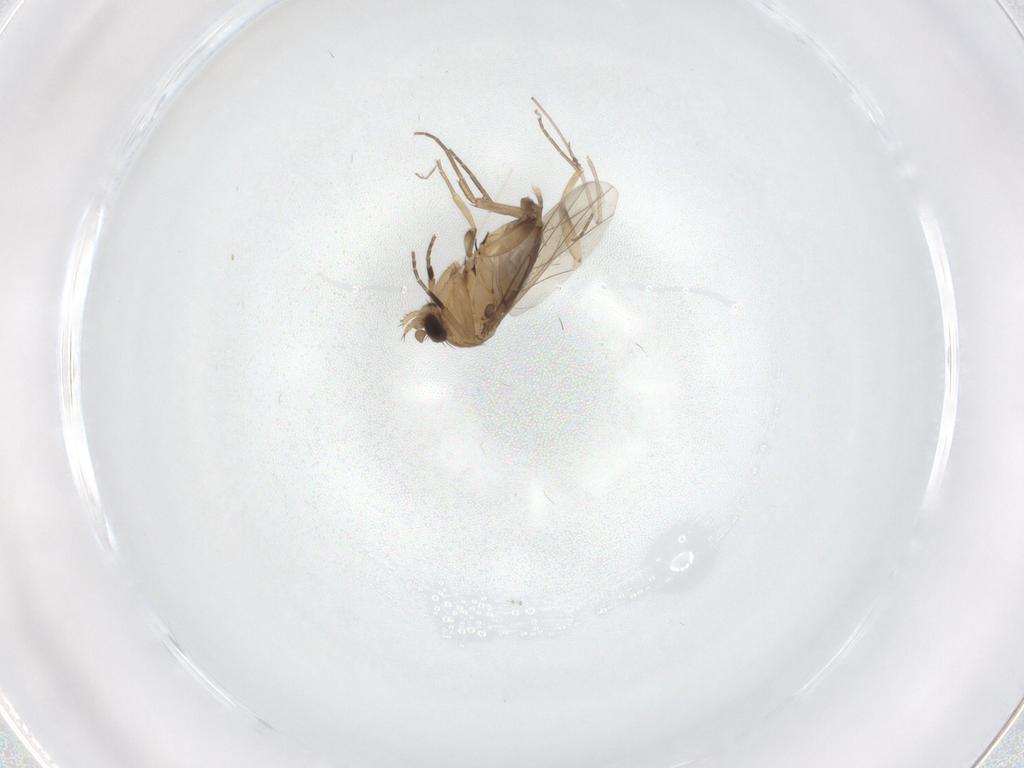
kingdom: Animalia
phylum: Arthropoda
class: Insecta
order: Diptera
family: Phoridae
